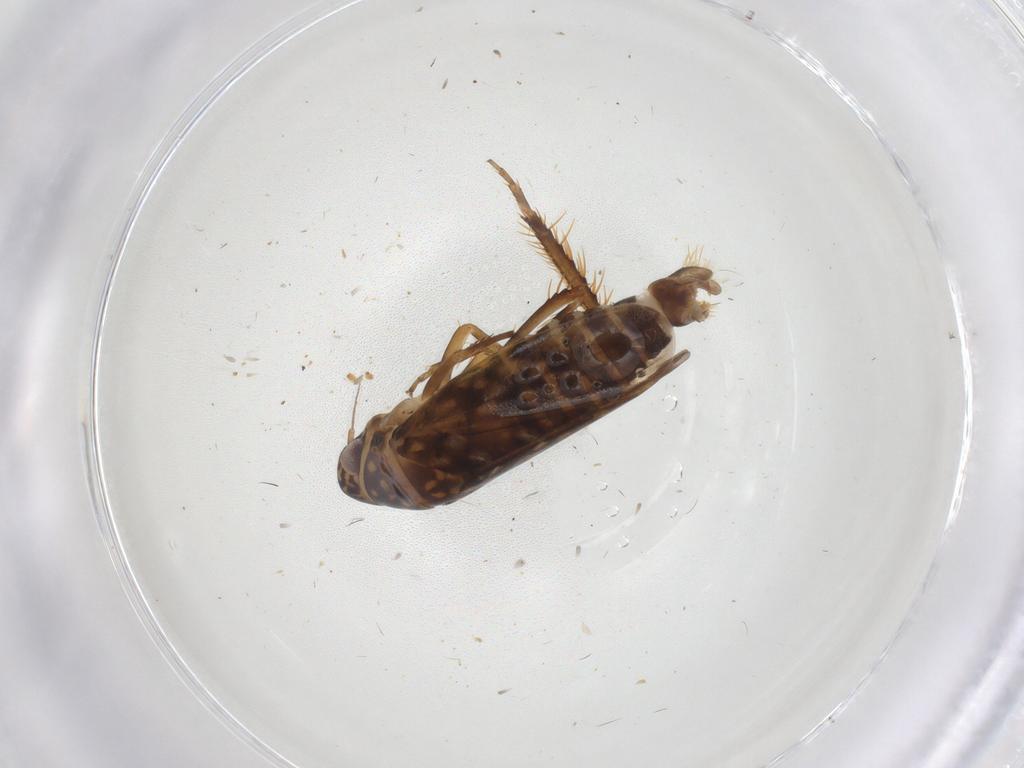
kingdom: Animalia
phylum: Arthropoda
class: Insecta
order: Hemiptera
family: Cicadellidae
